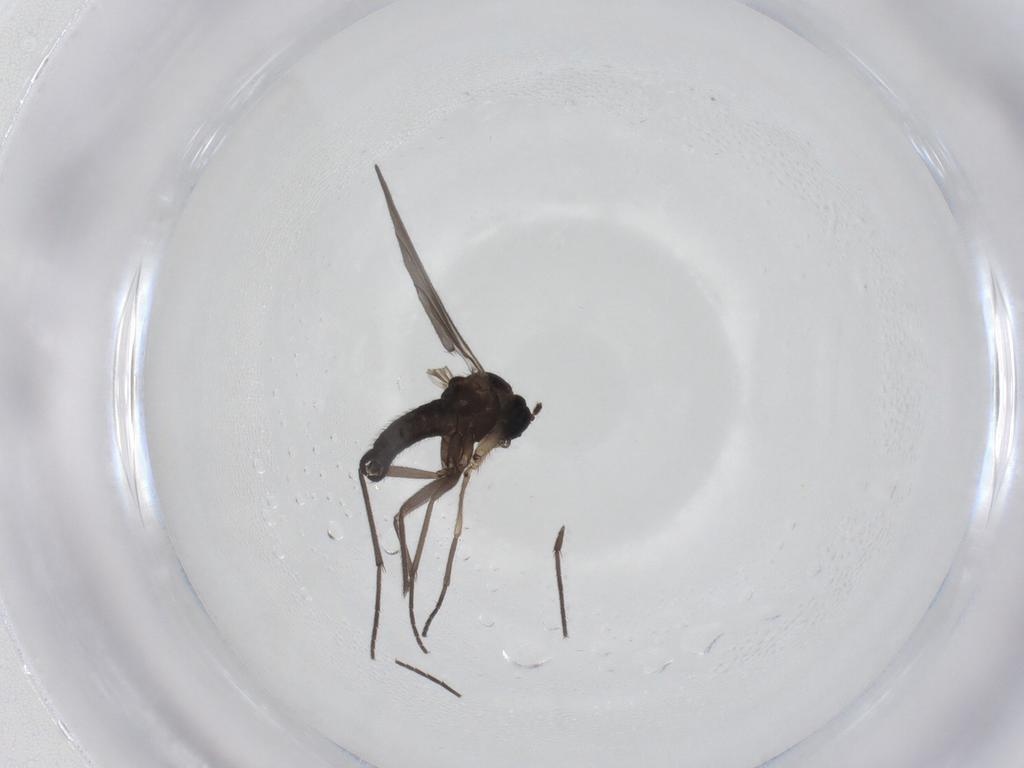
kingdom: Animalia
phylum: Arthropoda
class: Insecta
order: Diptera
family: Sciaridae
